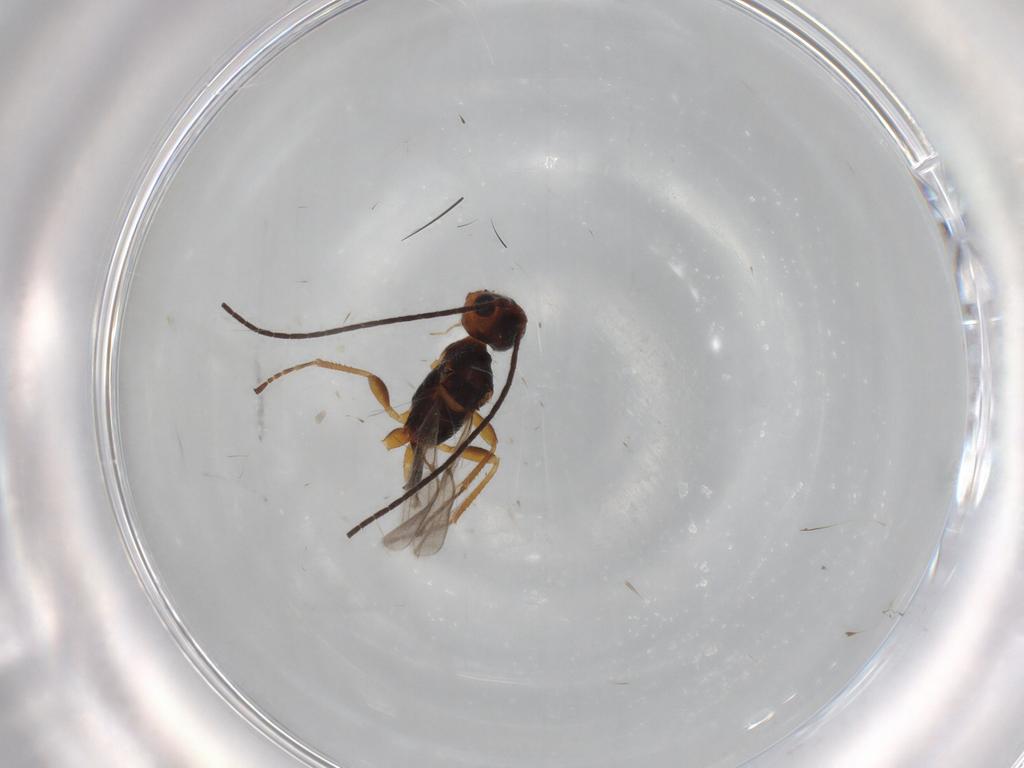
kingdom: Animalia
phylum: Arthropoda
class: Insecta
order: Hymenoptera
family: Braconidae
